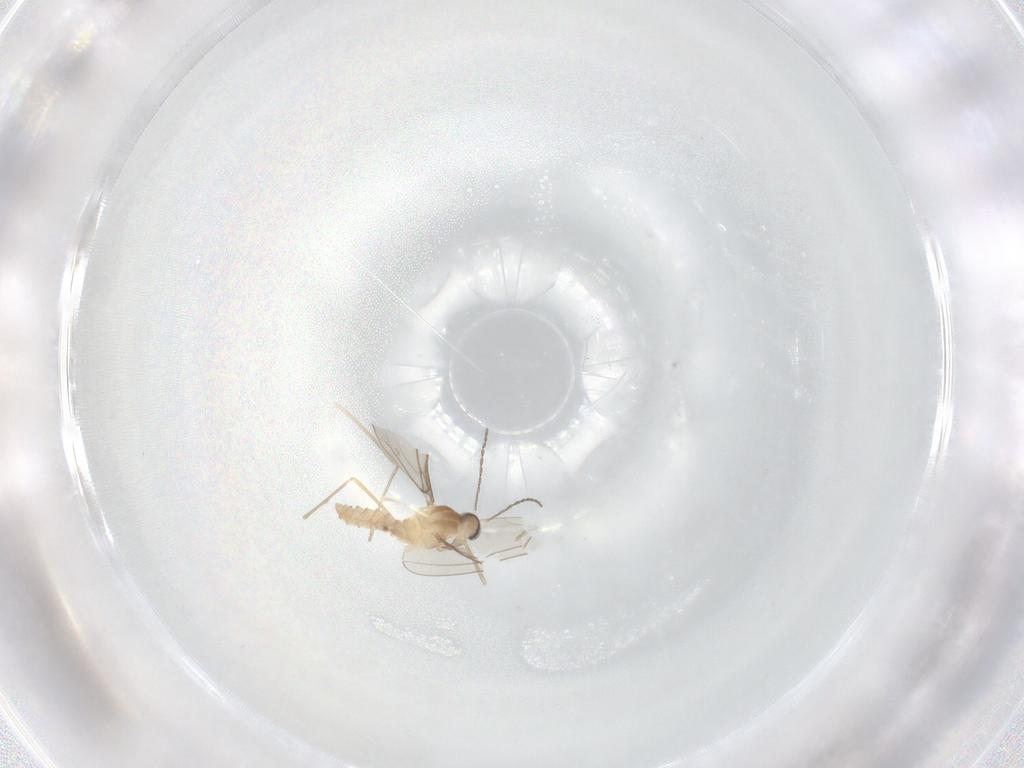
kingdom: Animalia
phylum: Arthropoda
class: Insecta
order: Diptera
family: Cecidomyiidae
